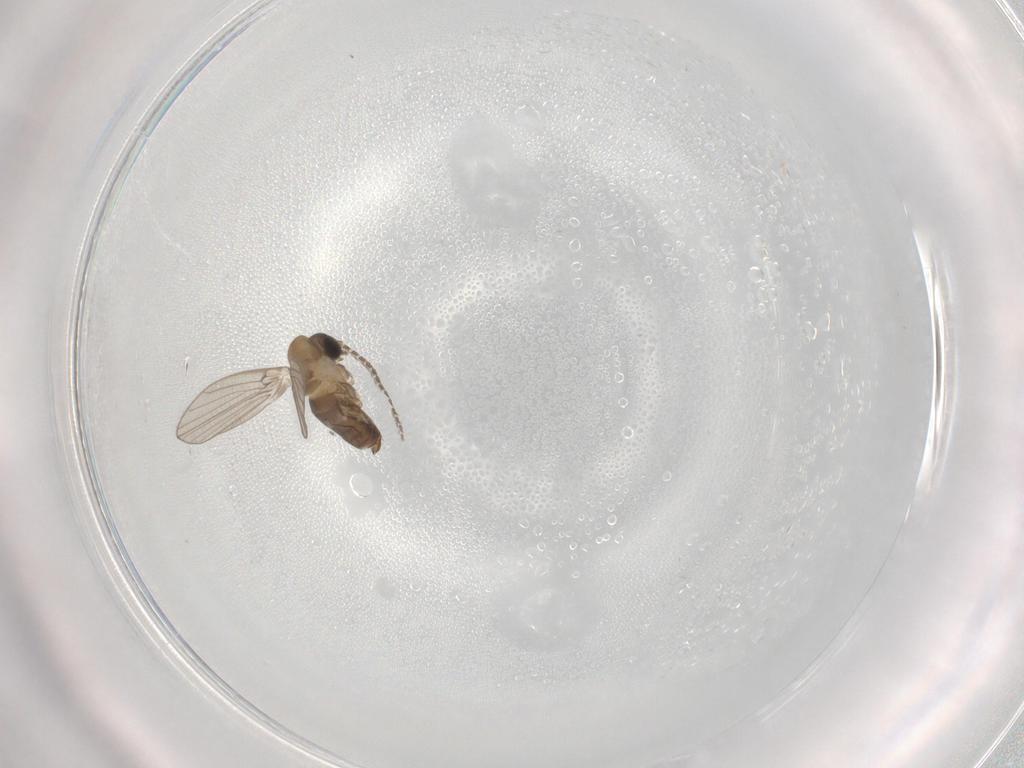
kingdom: Animalia
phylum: Arthropoda
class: Insecta
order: Diptera
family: Psychodidae
